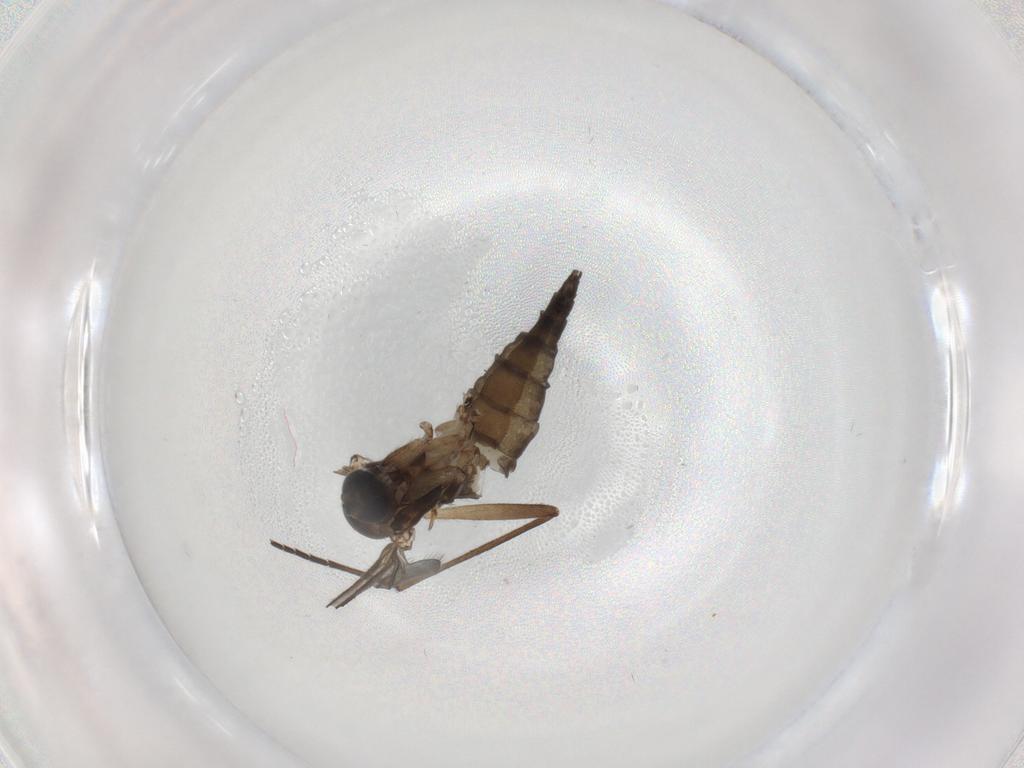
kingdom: Animalia
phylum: Arthropoda
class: Insecta
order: Diptera
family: Sciaridae
